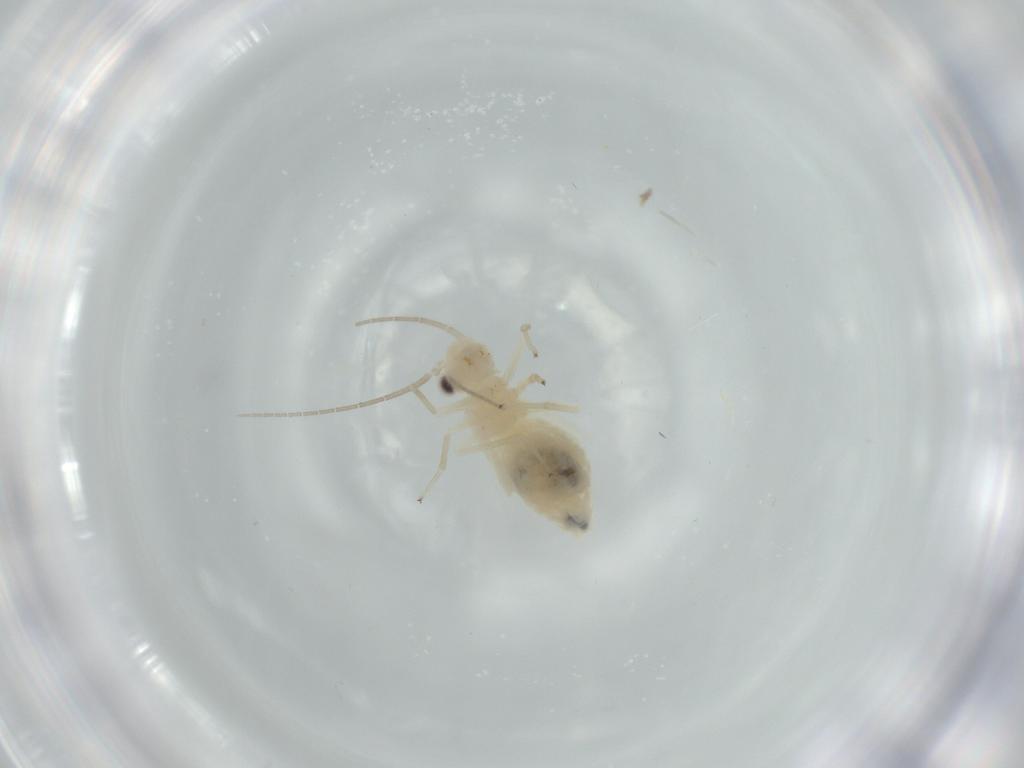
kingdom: Animalia
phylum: Arthropoda
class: Insecta
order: Psocodea
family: Caeciliusidae
